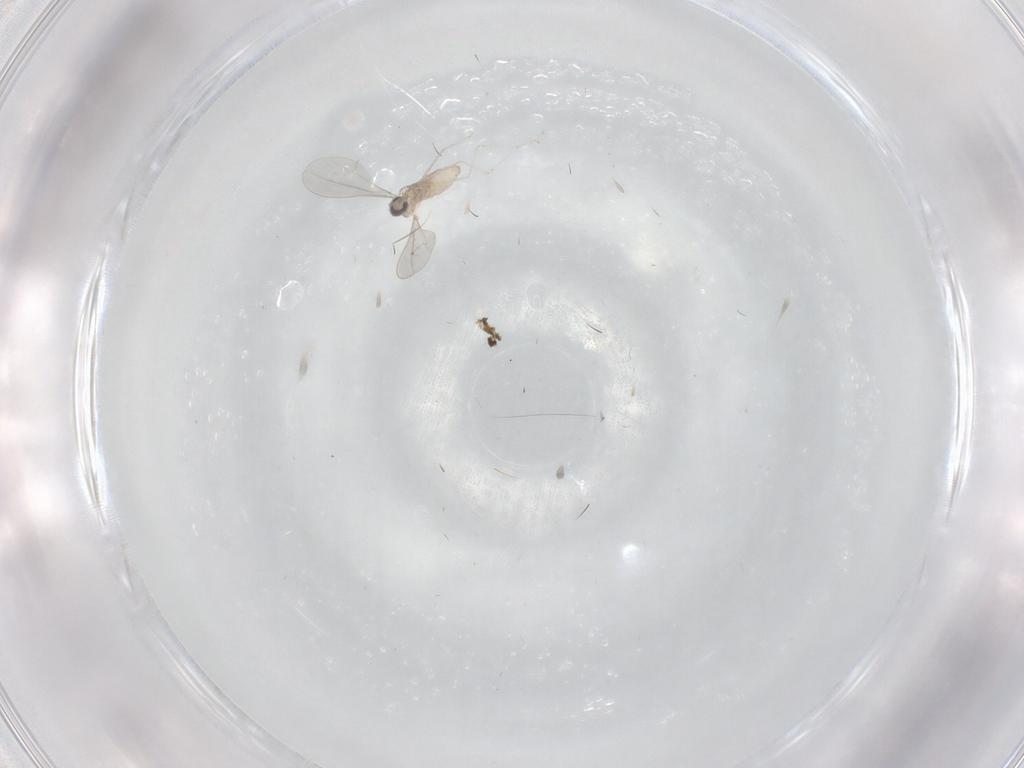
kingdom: Animalia
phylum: Arthropoda
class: Insecta
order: Diptera
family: Cecidomyiidae
